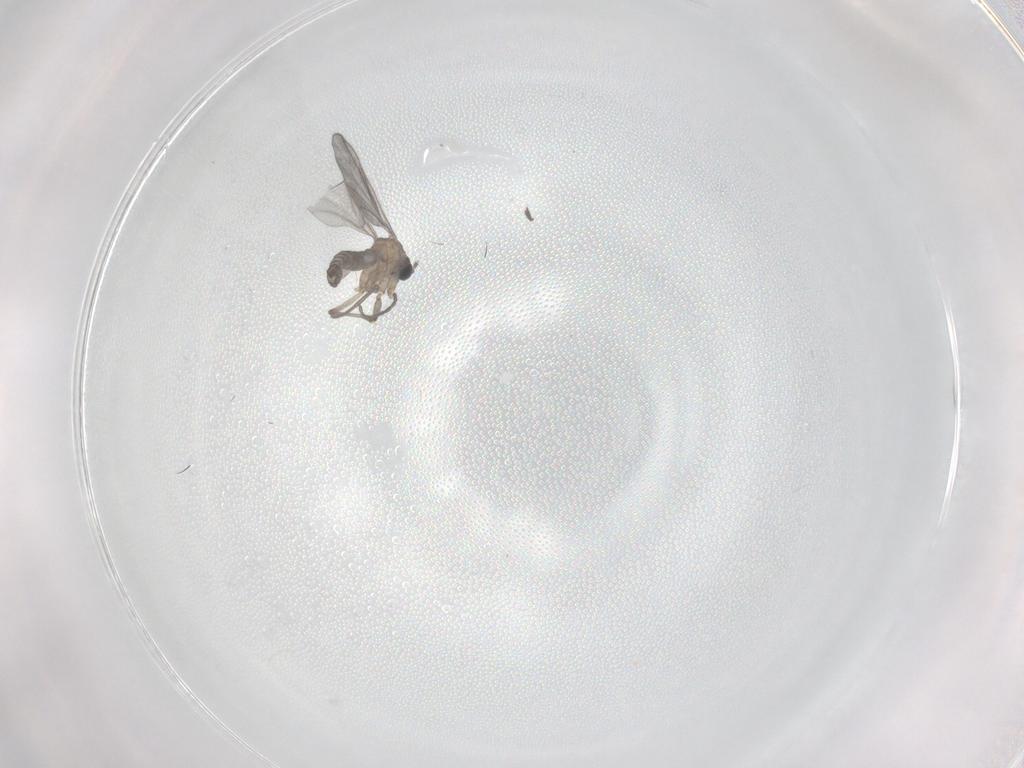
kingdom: Animalia
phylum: Arthropoda
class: Insecta
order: Diptera
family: Sciaridae
